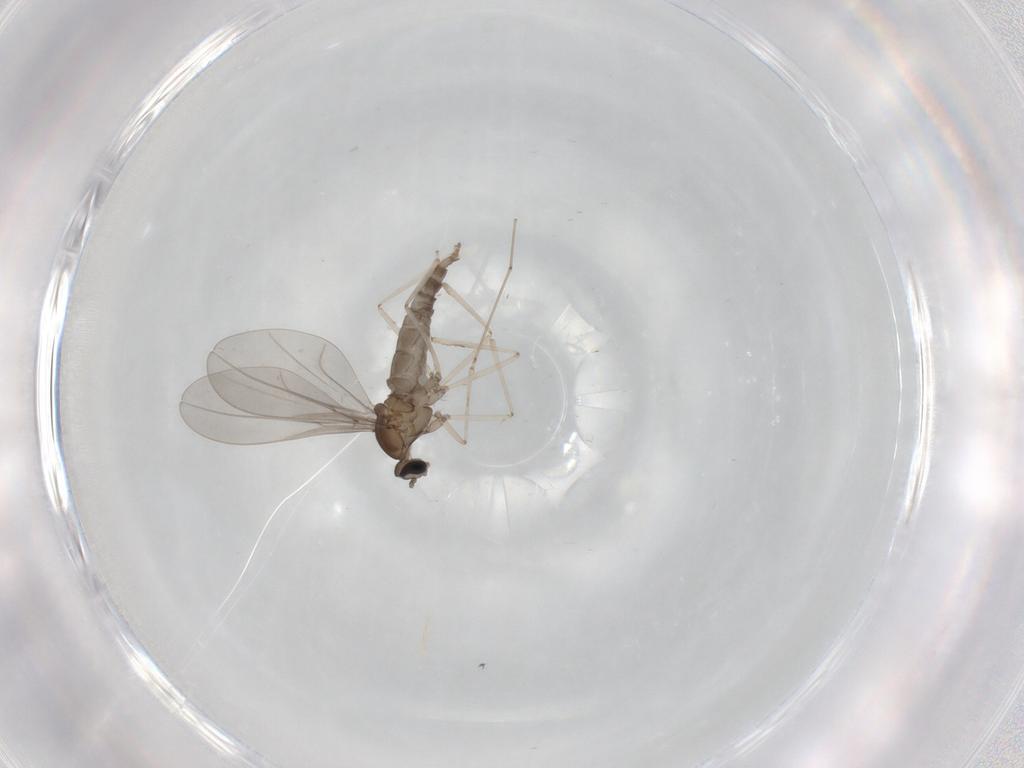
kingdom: Animalia
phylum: Arthropoda
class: Insecta
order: Diptera
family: Cecidomyiidae
